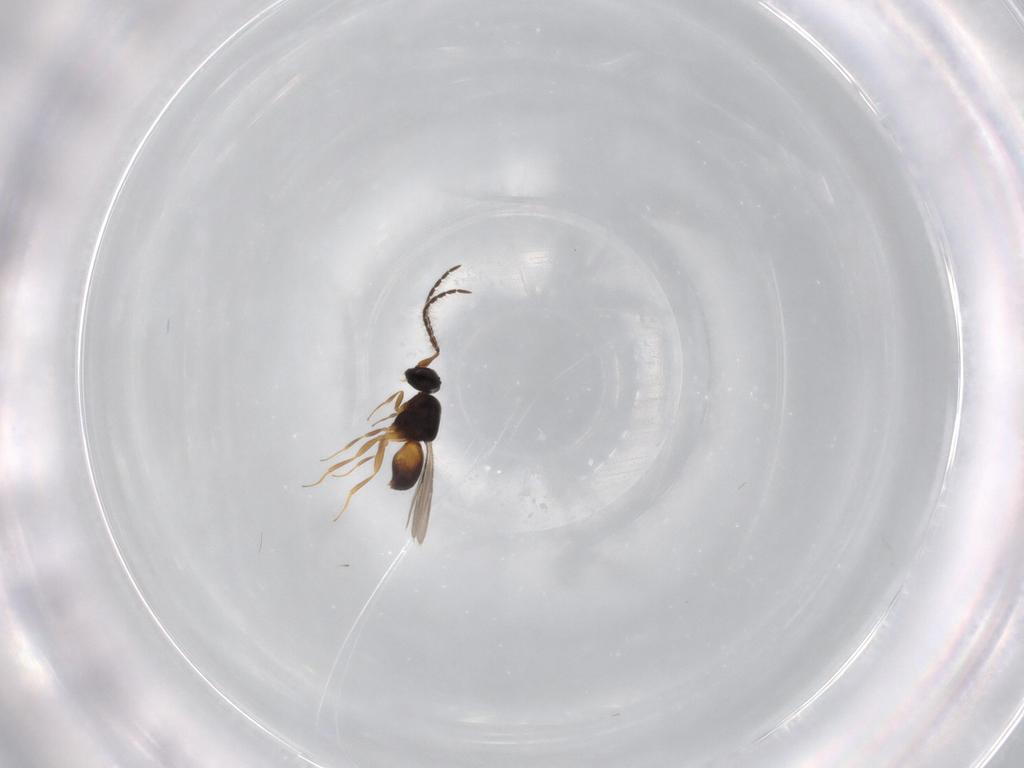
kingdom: Animalia
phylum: Arthropoda
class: Insecta
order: Hymenoptera
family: Ceraphronidae
